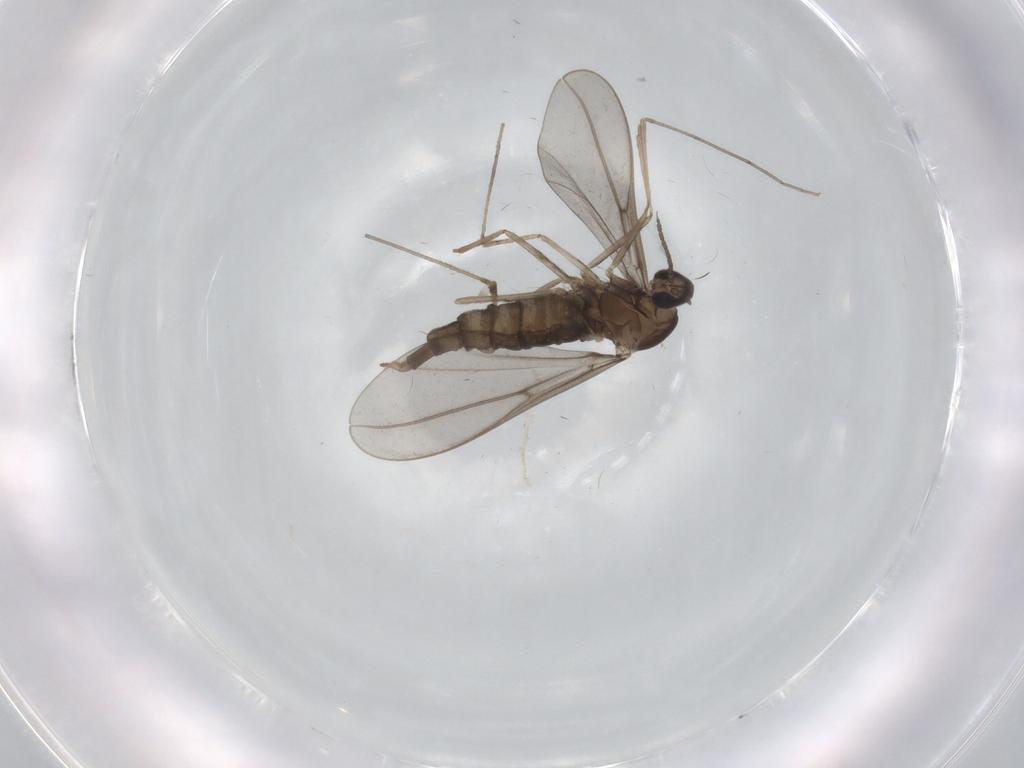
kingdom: Animalia
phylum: Arthropoda
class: Insecta
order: Diptera
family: Cecidomyiidae
